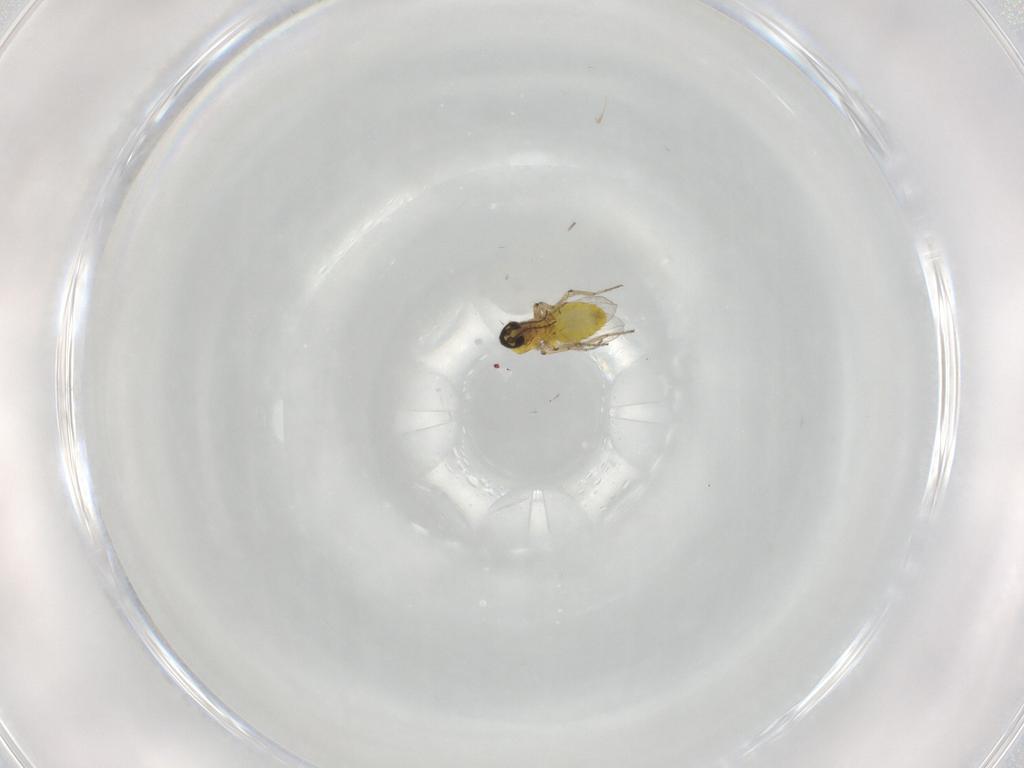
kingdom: Animalia
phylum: Arthropoda
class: Insecta
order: Diptera
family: Ceratopogonidae
